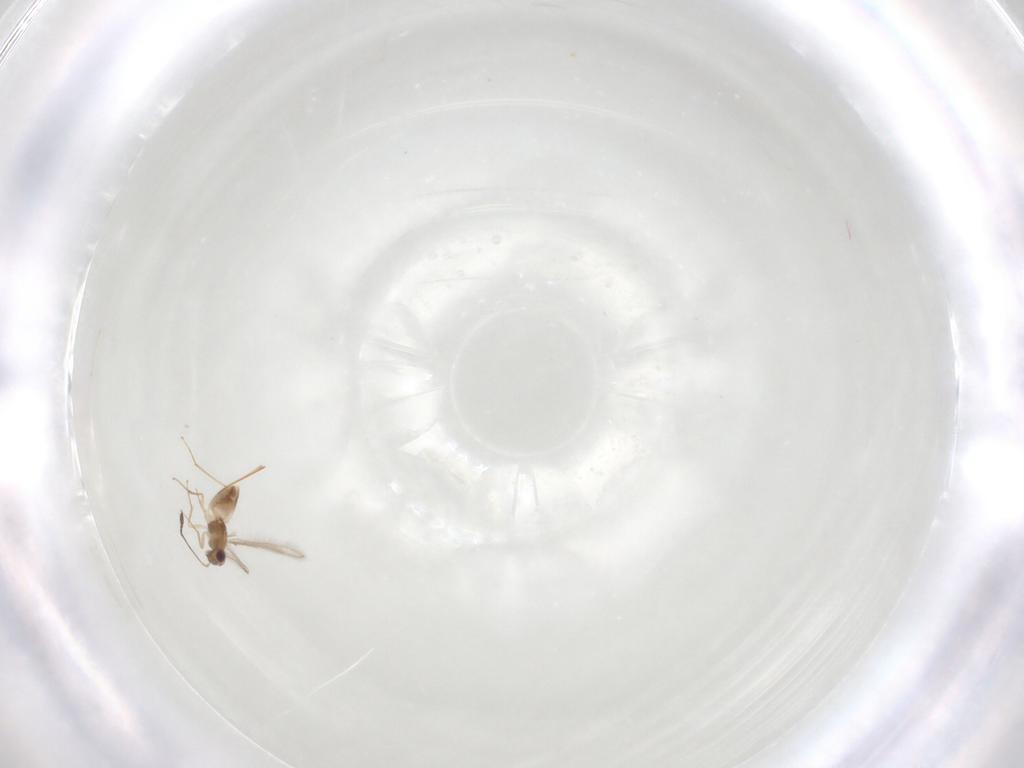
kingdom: Animalia
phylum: Arthropoda
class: Insecta
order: Hymenoptera
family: Mymaridae
